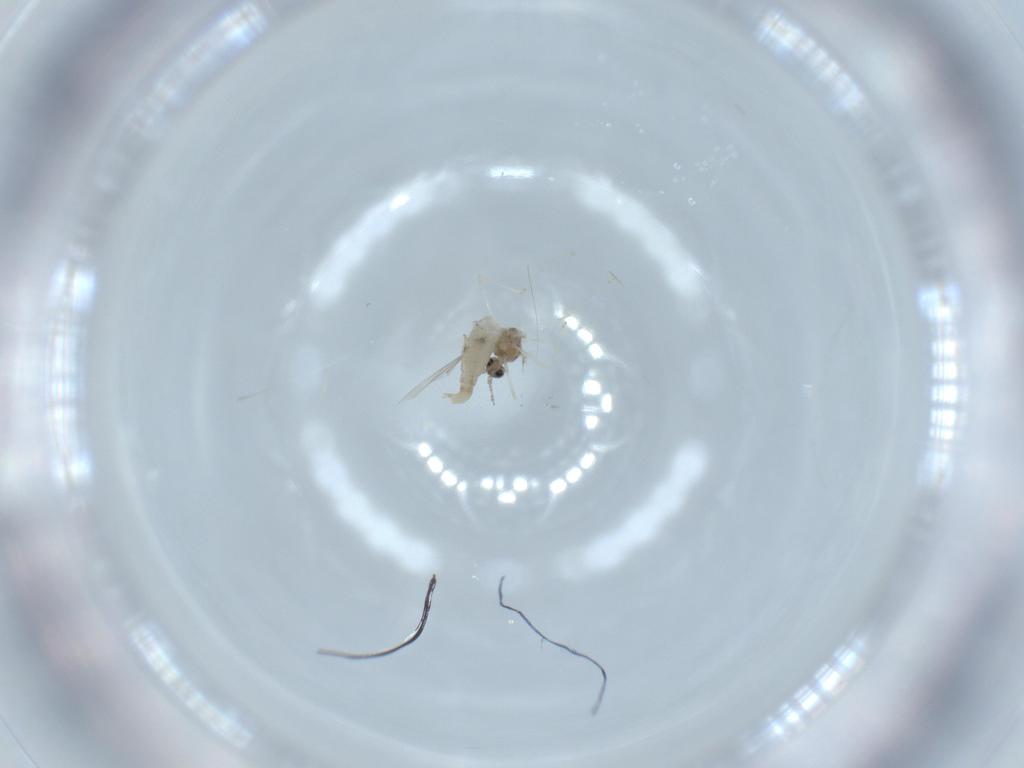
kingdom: Animalia
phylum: Arthropoda
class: Insecta
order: Diptera
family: Cecidomyiidae
